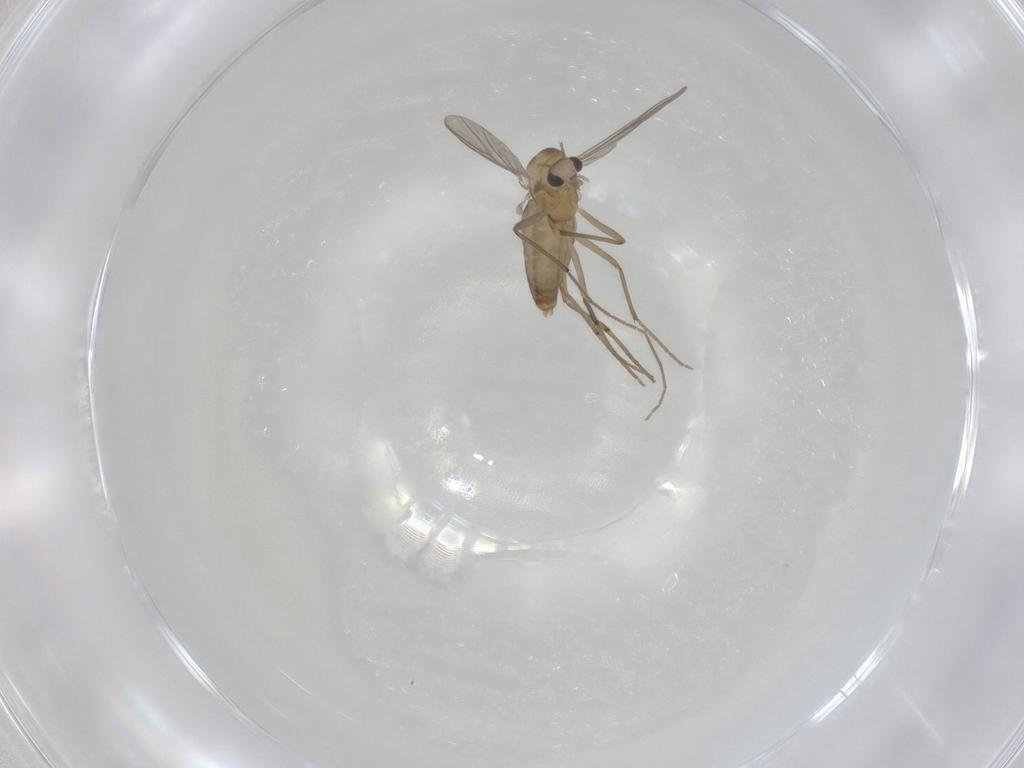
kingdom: Animalia
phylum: Arthropoda
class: Insecta
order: Diptera
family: Chironomidae
